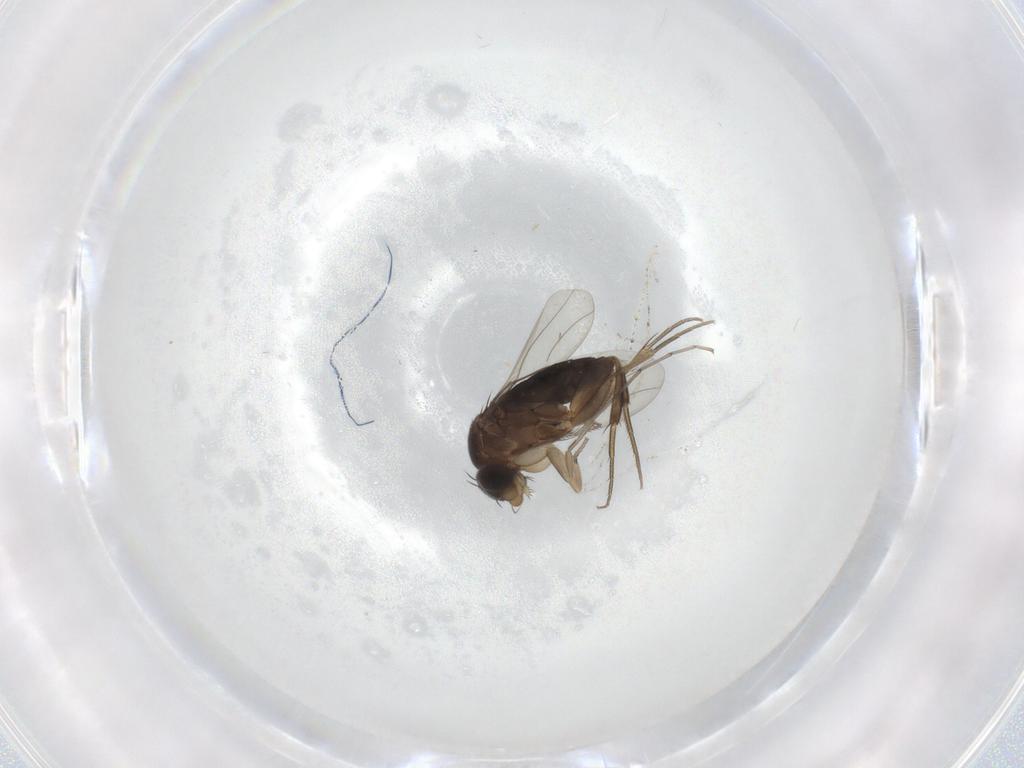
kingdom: Animalia
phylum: Arthropoda
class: Insecta
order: Diptera
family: Phoridae
